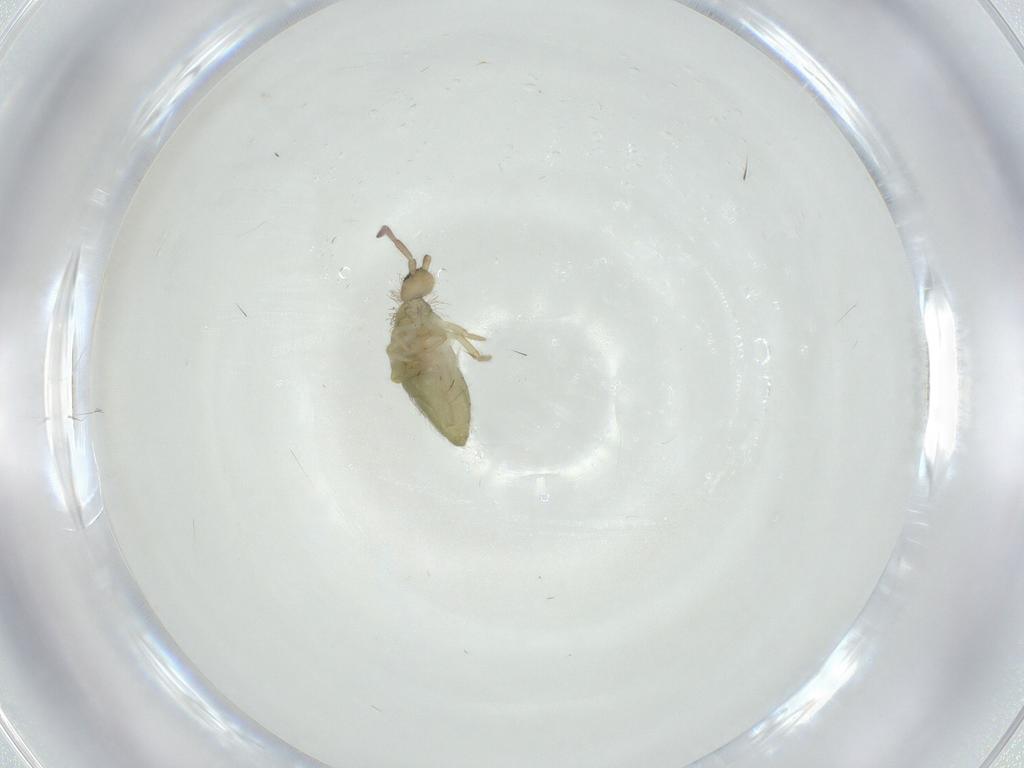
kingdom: Animalia
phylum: Arthropoda
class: Collembola
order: Entomobryomorpha
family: Entomobryidae
